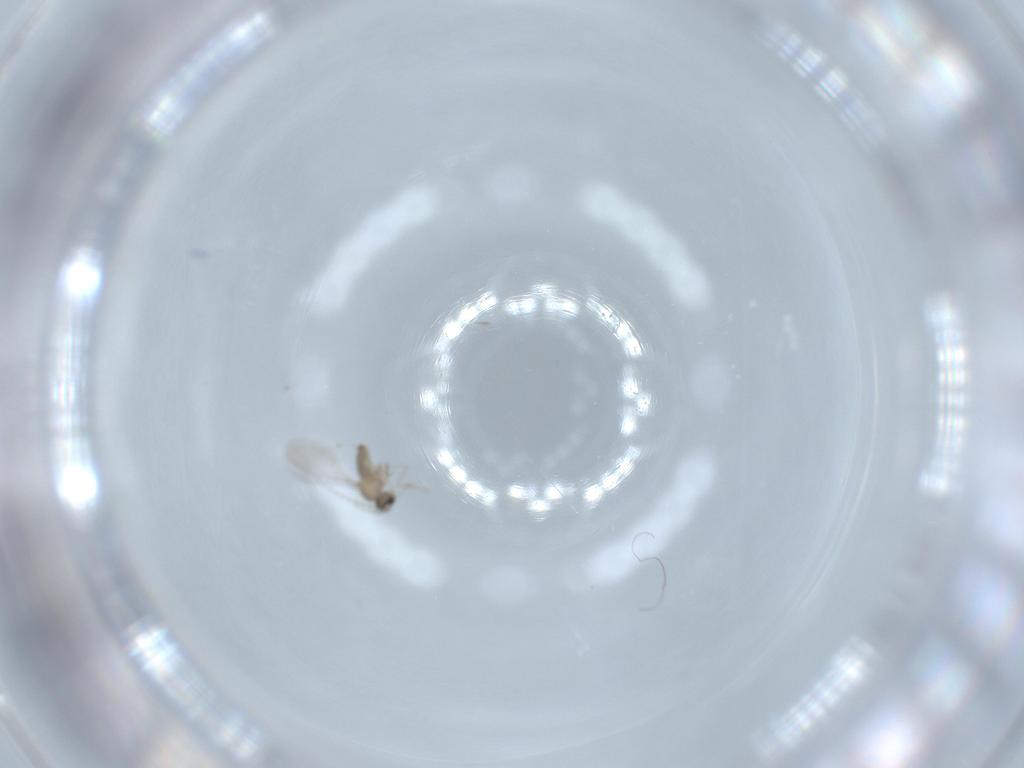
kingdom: Animalia
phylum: Arthropoda
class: Insecta
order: Diptera
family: Cecidomyiidae
